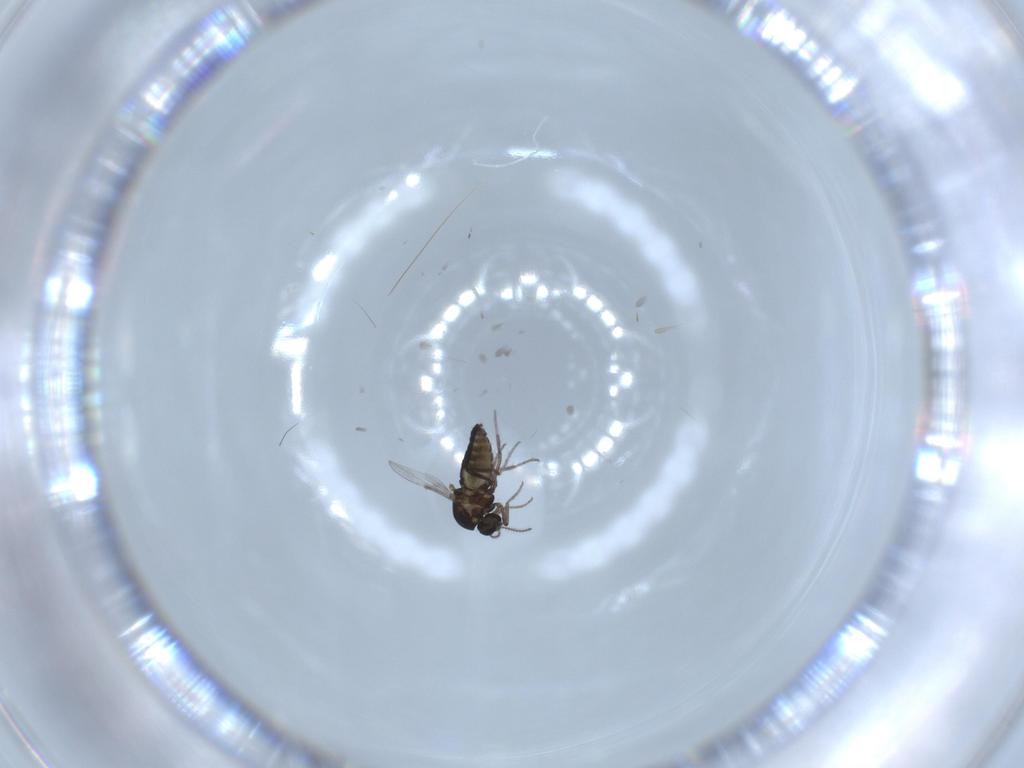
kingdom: Animalia
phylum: Arthropoda
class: Insecta
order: Diptera
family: Ceratopogonidae
